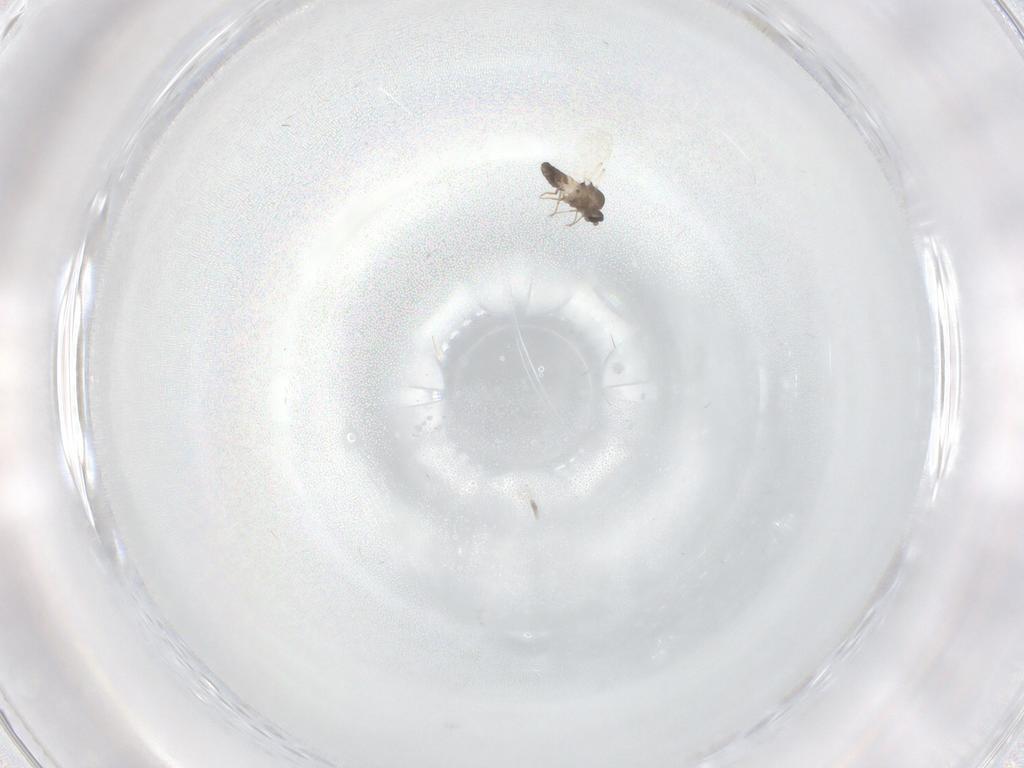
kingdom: Animalia
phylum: Arthropoda
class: Insecta
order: Diptera
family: Ceratopogonidae
